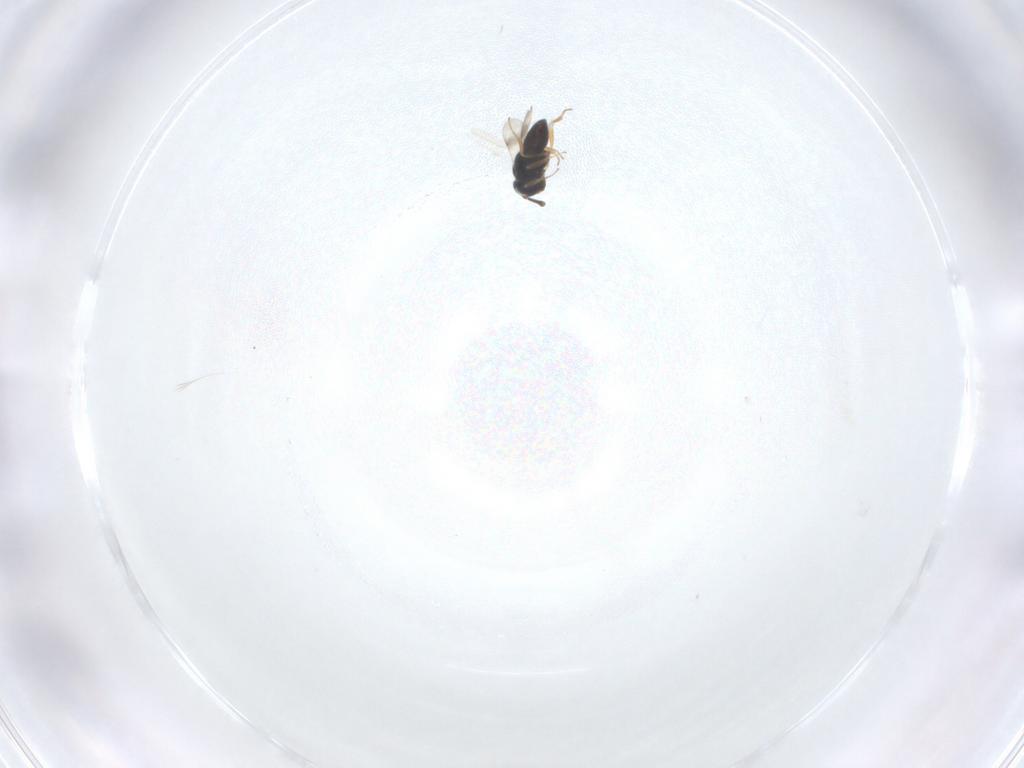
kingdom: Animalia
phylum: Arthropoda
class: Insecta
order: Hymenoptera
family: Scelionidae
